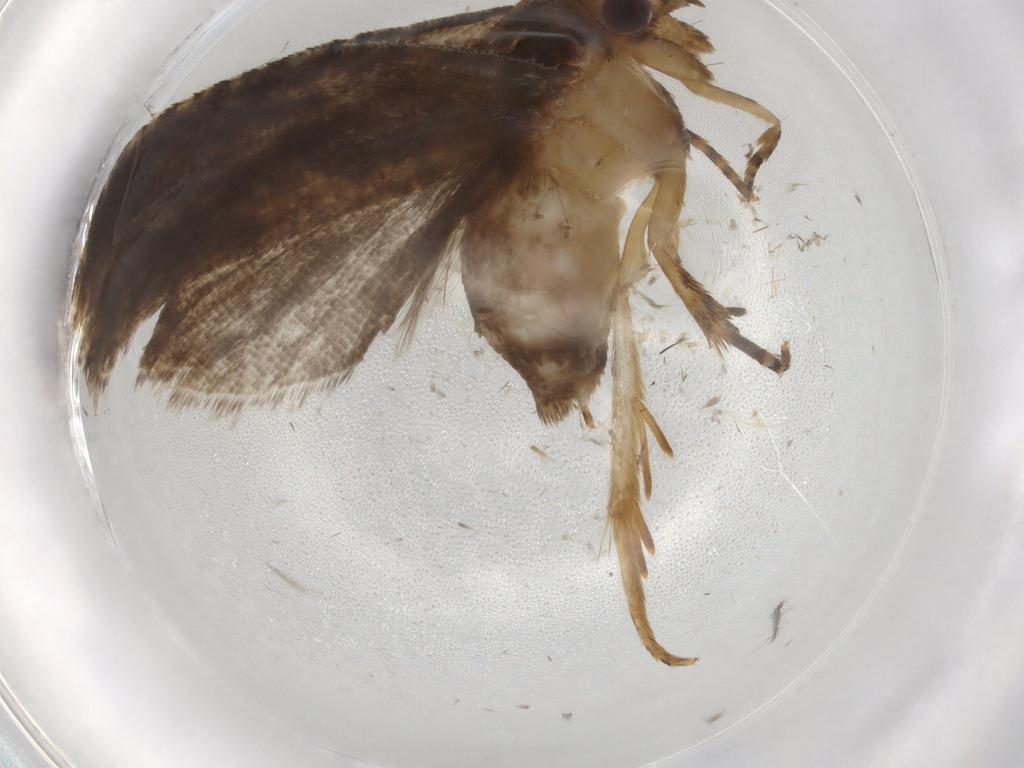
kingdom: Animalia
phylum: Arthropoda
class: Insecta
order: Lepidoptera
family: Tortricidae
